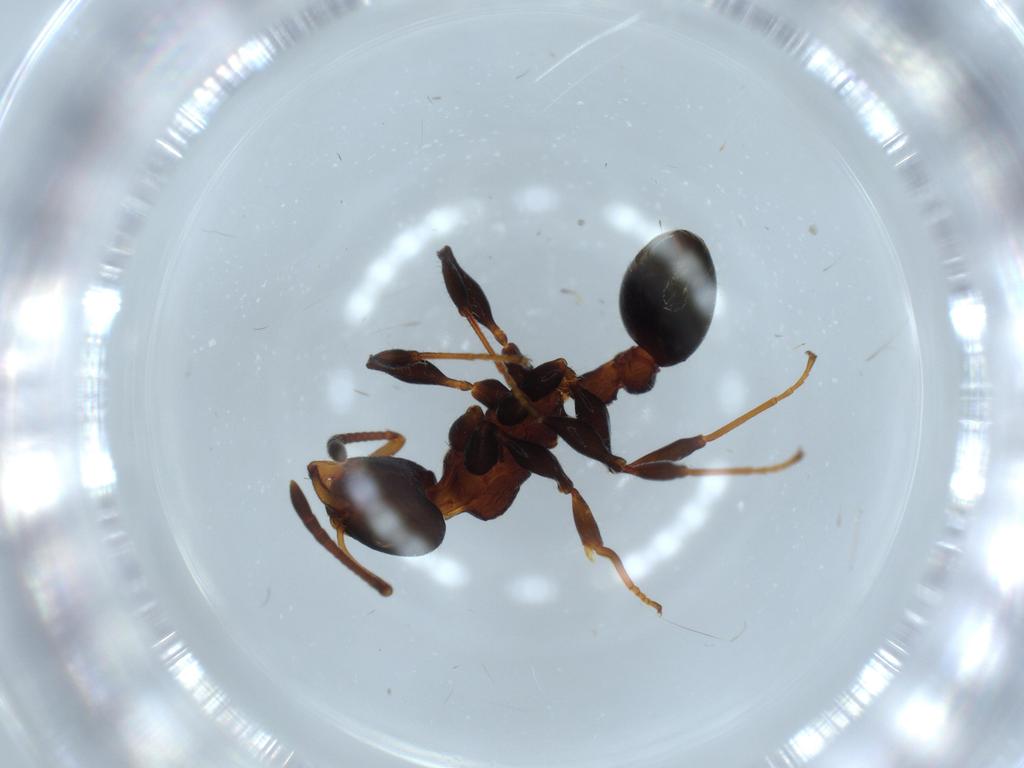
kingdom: Animalia
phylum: Arthropoda
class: Insecta
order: Hymenoptera
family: Formicidae
